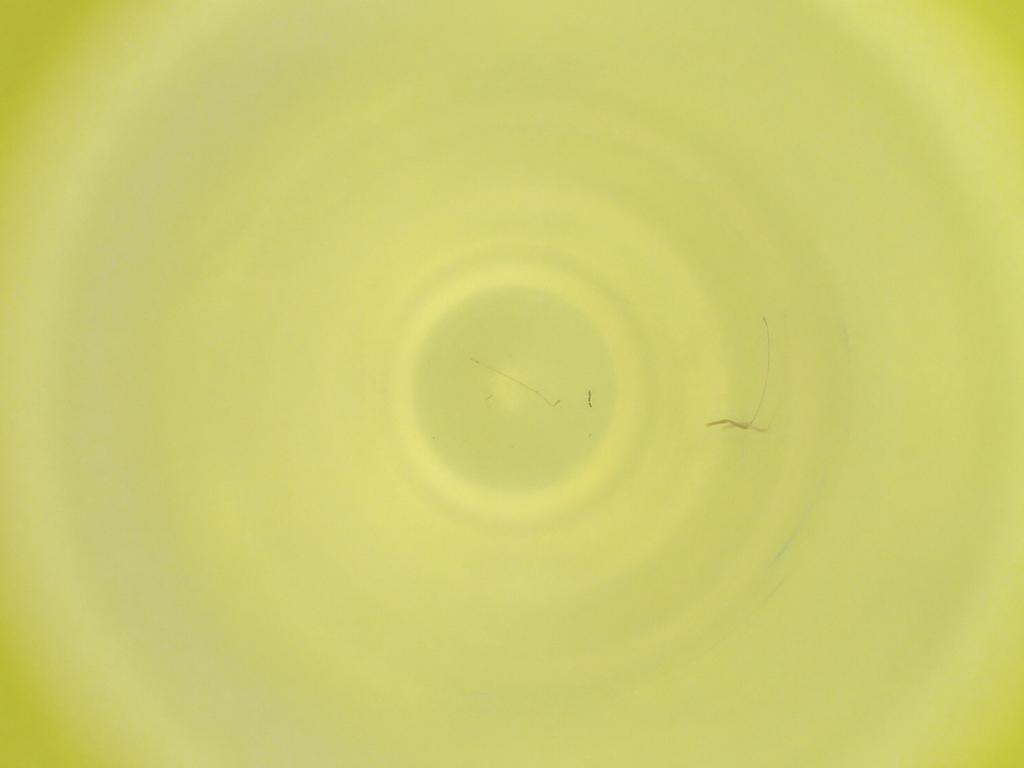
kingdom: Animalia
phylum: Arthropoda
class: Insecta
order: Diptera
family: Cecidomyiidae
